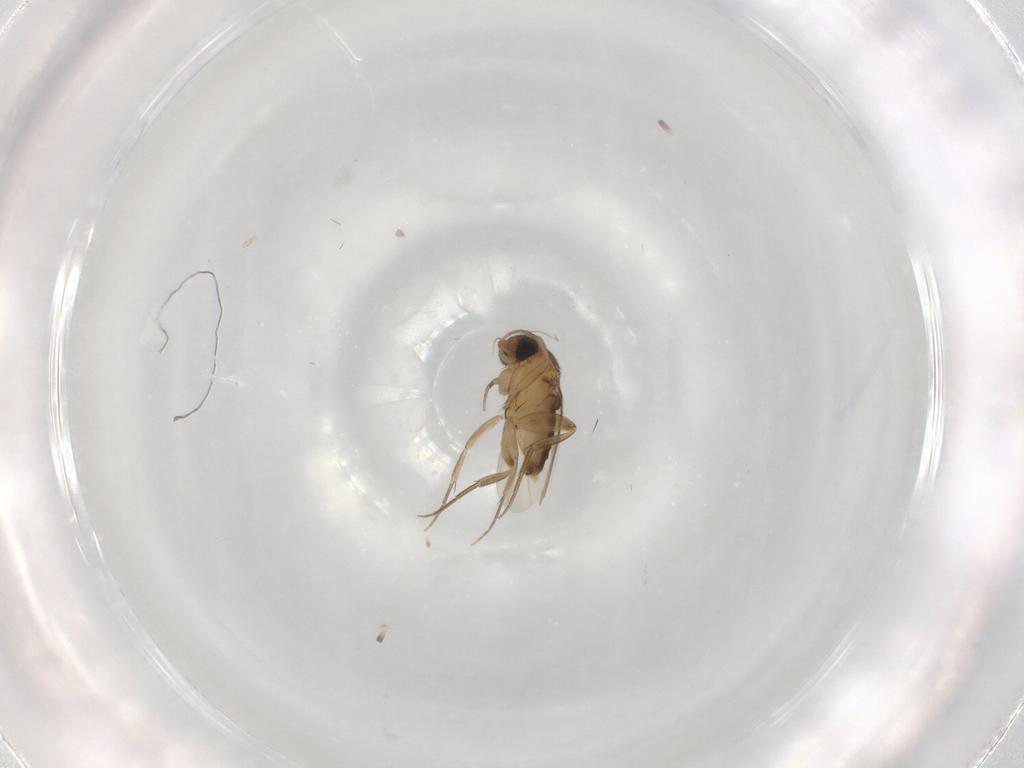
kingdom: Animalia
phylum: Arthropoda
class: Insecta
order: Diptera
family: Phoridae
